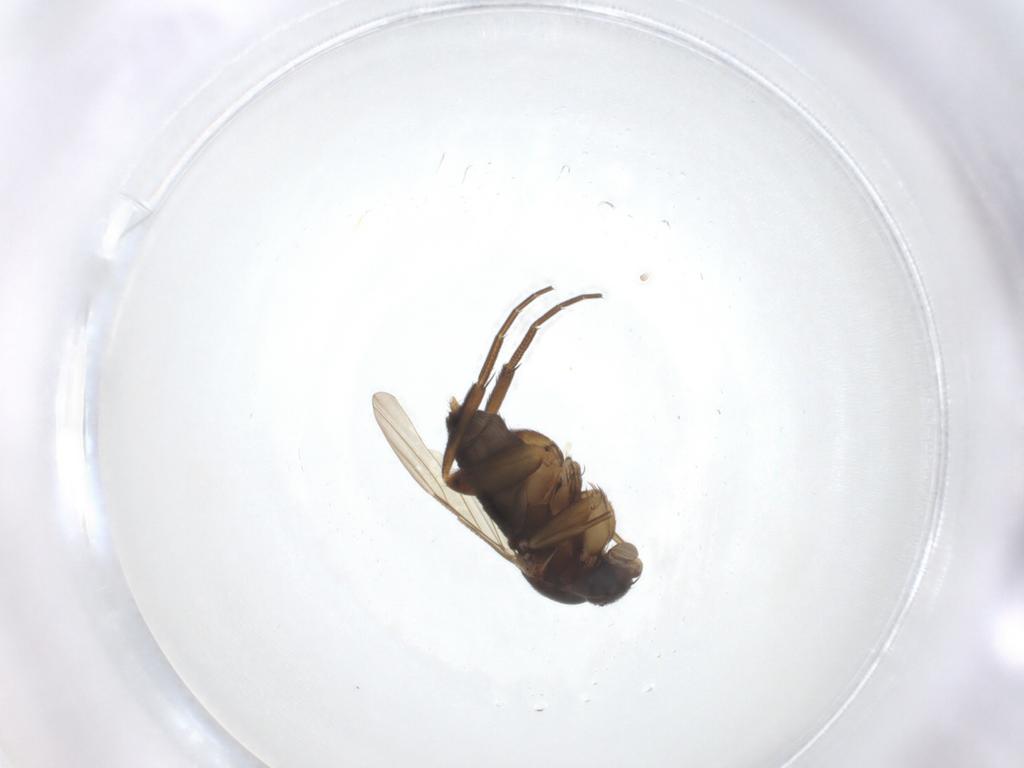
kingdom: Animalia
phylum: Arthropoda
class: Insecta
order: Diptera
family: Phoridae
